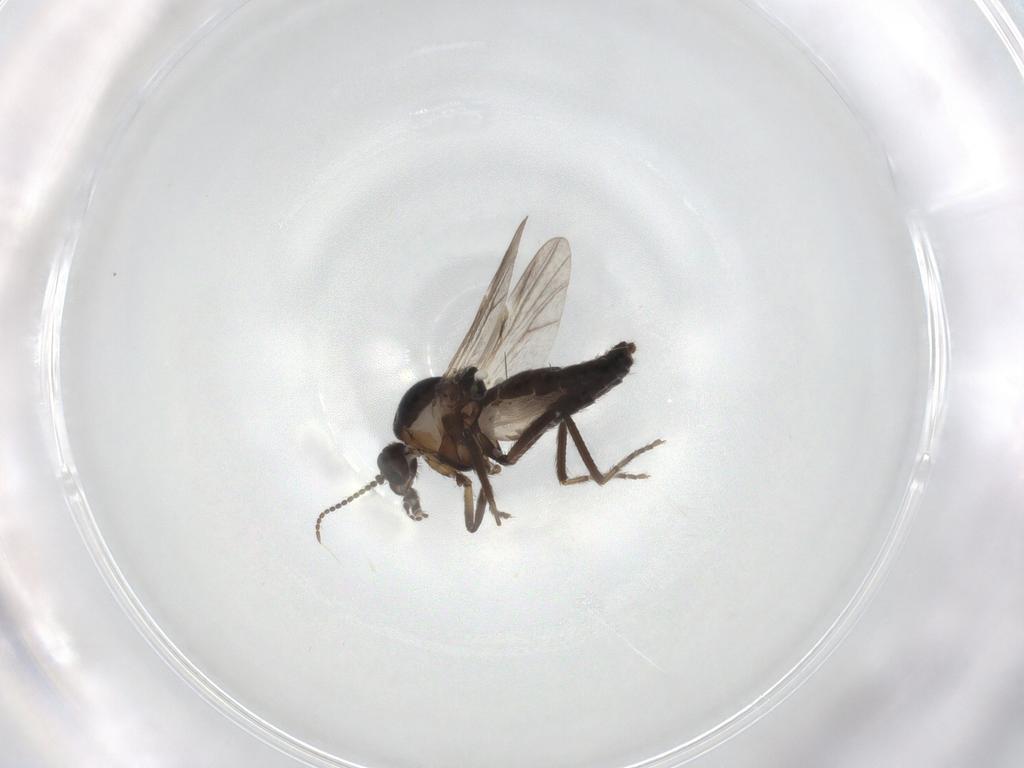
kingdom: Animalia
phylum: Arthropoda
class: Insecta
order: Diptera
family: Ceratopogonidae
